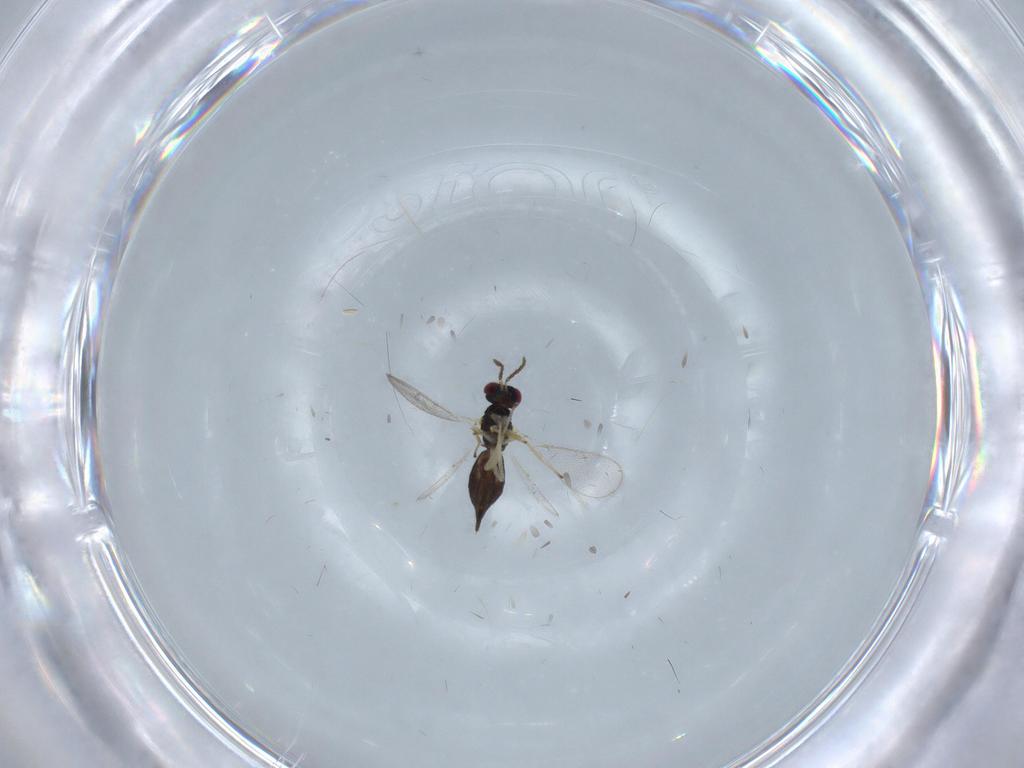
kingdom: Animalia
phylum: Arthropoda
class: Insecta
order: Hymenoptera
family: Eulophidae
